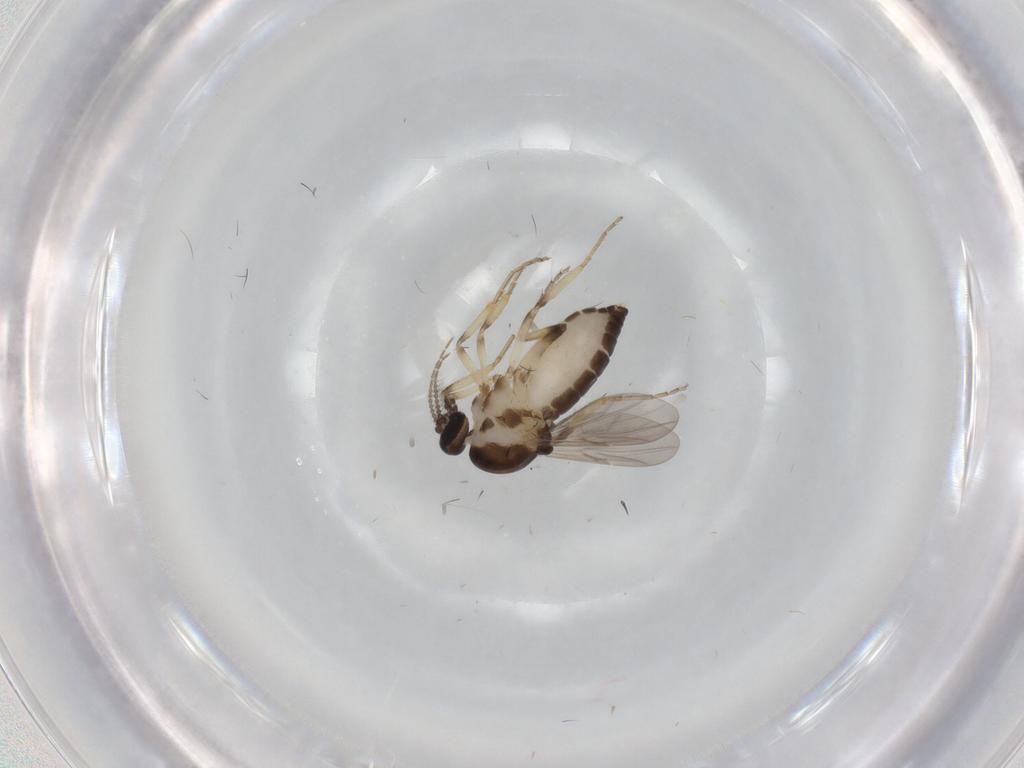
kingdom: Animalia
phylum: Arthropoda
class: Insecta
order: Diptera
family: Ceratopogonidae
